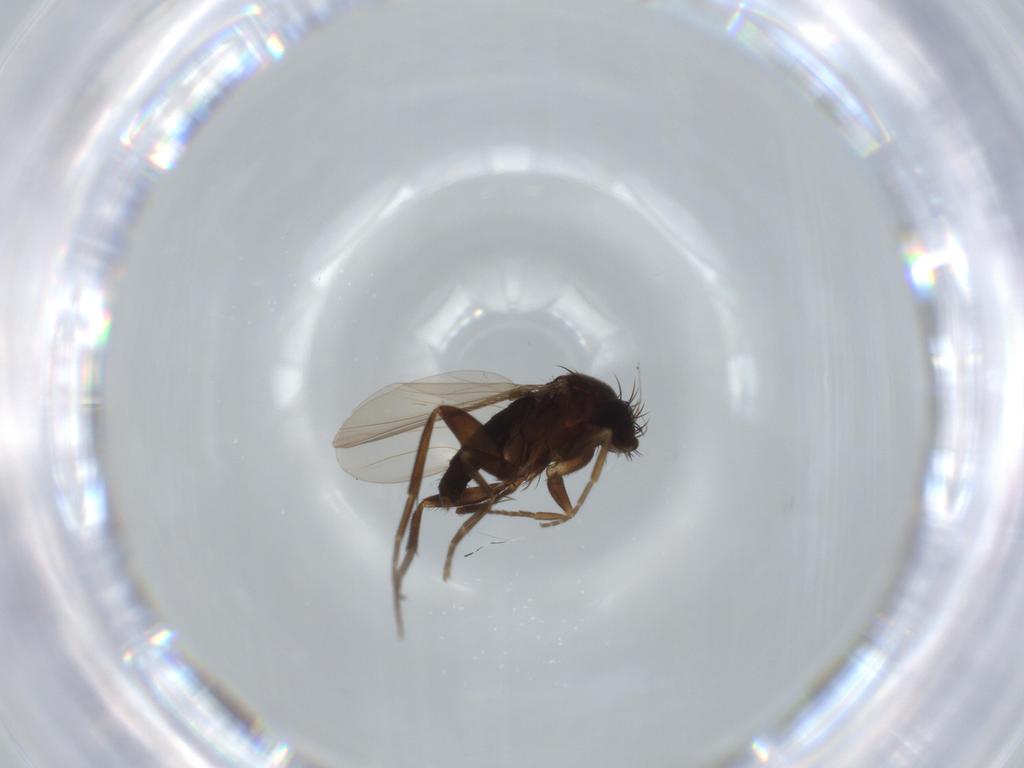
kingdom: Animalia
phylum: Arthropoda
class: Insecta
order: Diptera
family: Phoridae
